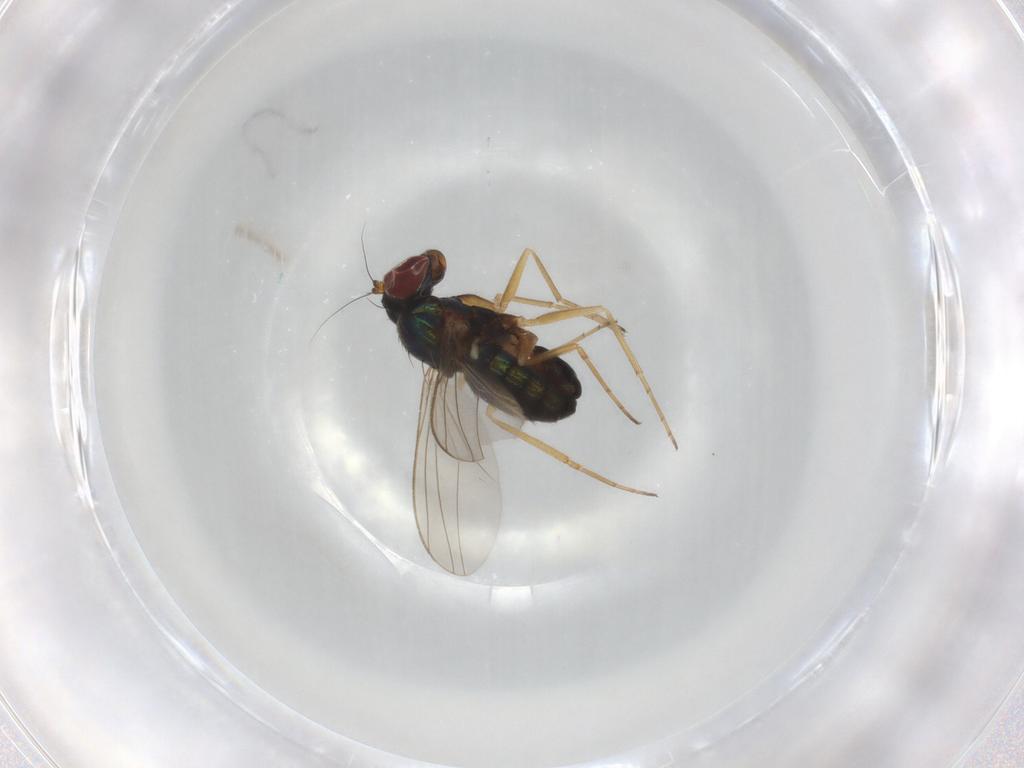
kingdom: Animalia
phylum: Arthropoda
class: Insecta
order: Diptera
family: Dolichopodidae
